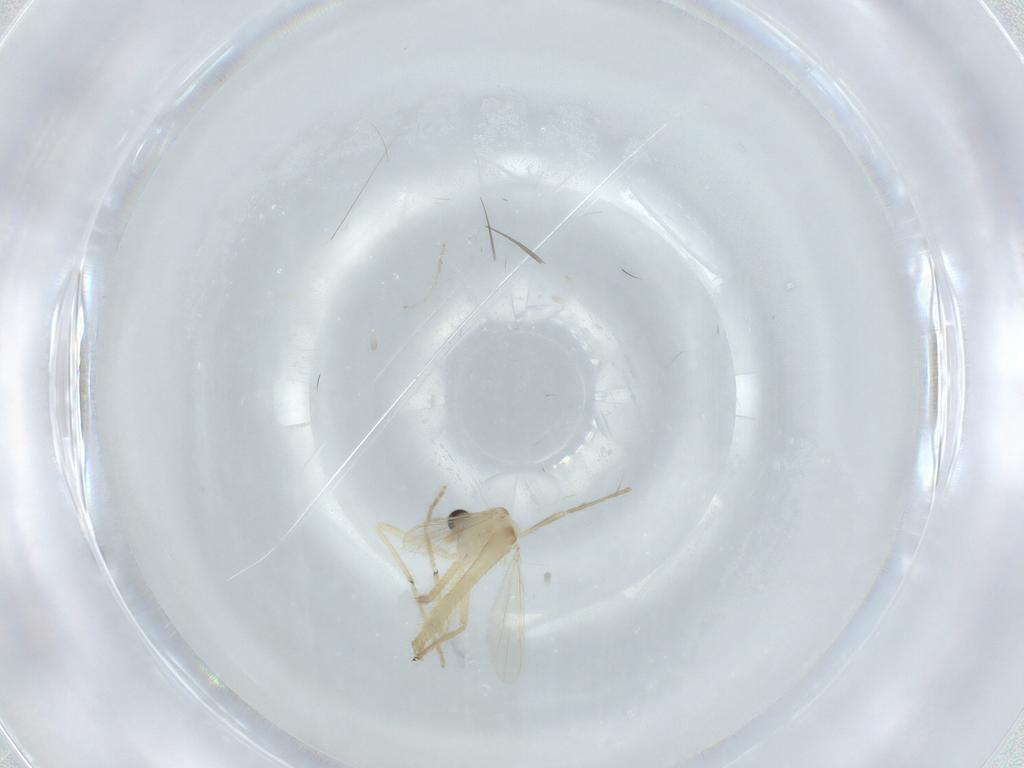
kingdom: Animalia
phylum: Arthropoda
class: Insecta
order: Diptera
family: Chironomidae
